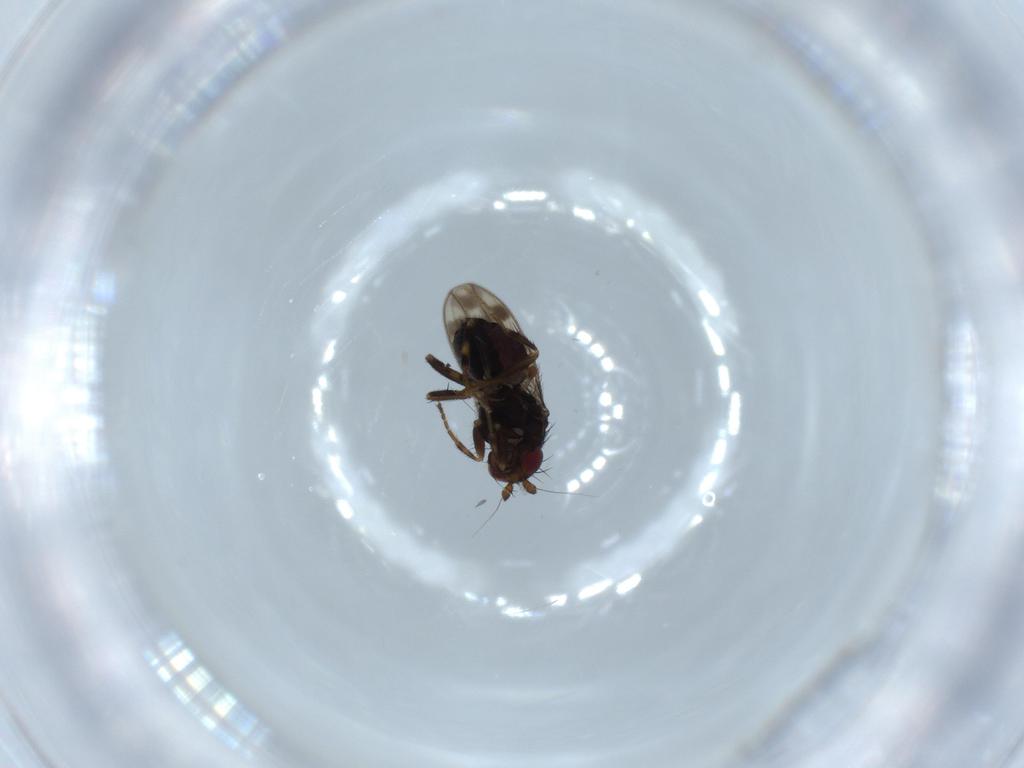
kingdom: Animalia
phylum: Arthropoda
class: Insecta
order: Diptera
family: Sphaeroceridae
